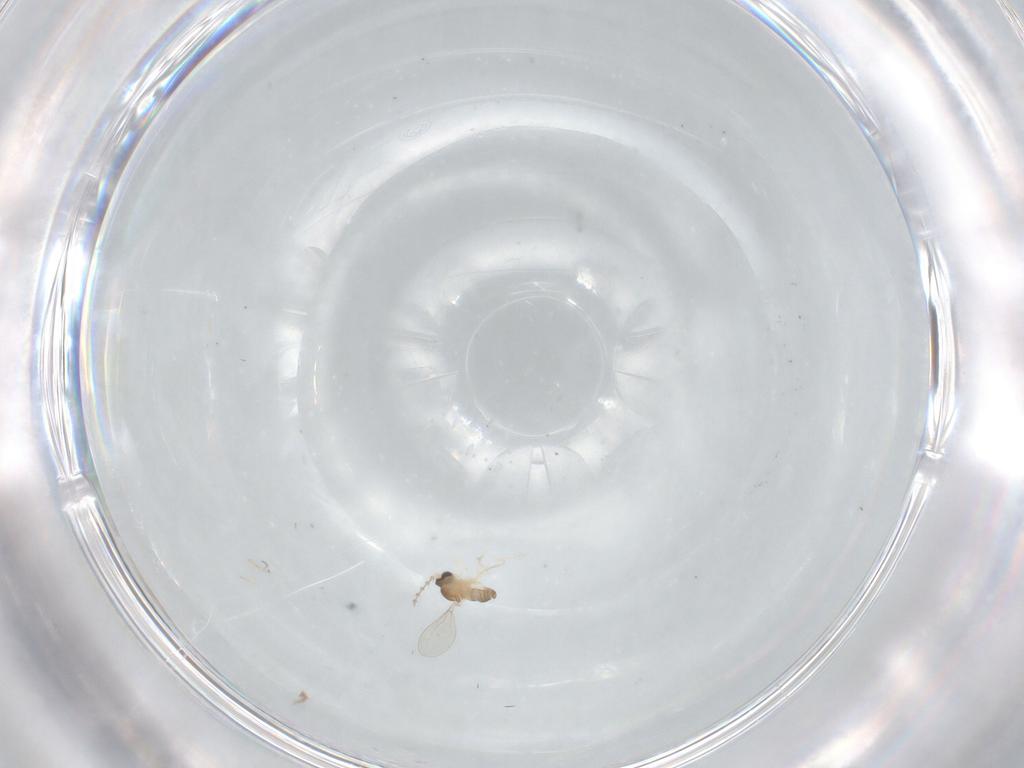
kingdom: Animalia
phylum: Arthropoda
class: Insecta
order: Diptera
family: Cecidomyiidae
